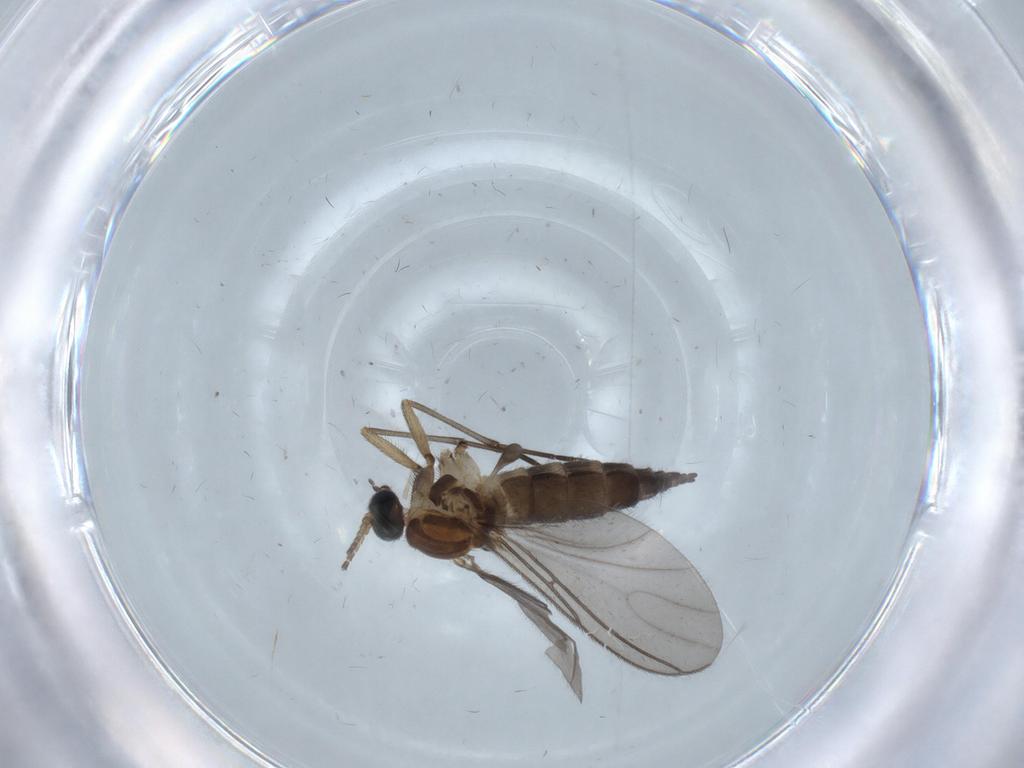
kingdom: Animalia
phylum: Arthropoda
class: Insecta
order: Diptera
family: Sciaridae
